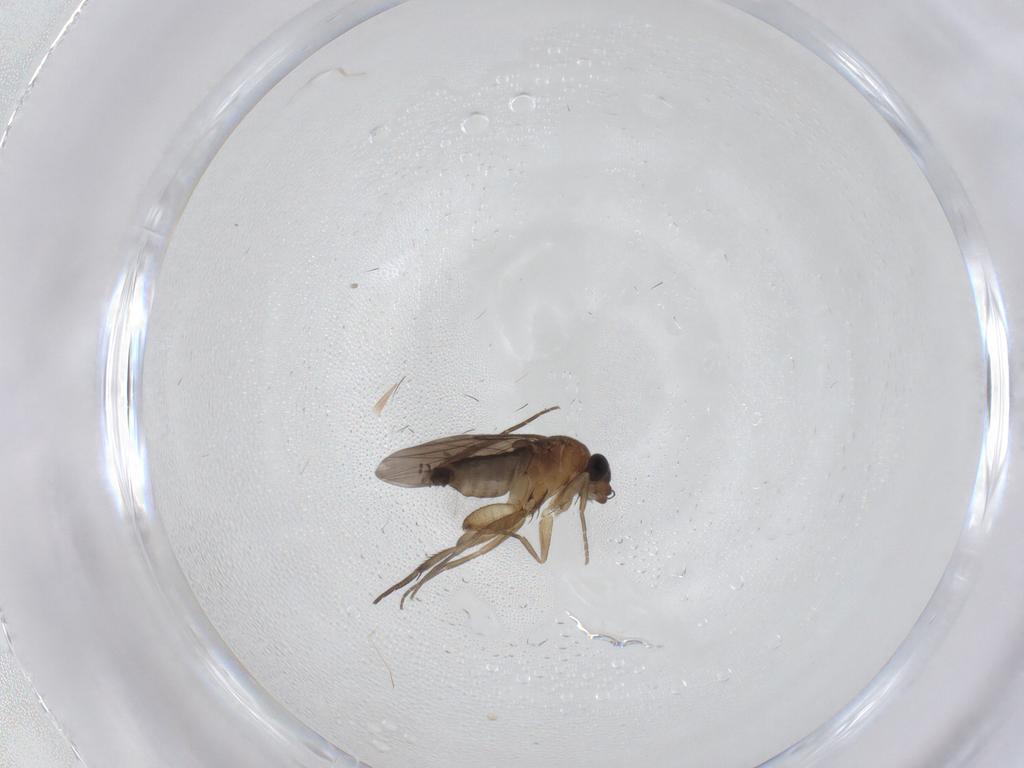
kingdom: Animalia
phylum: Arthropoda
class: Insecta
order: Diptera
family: Phoridae
